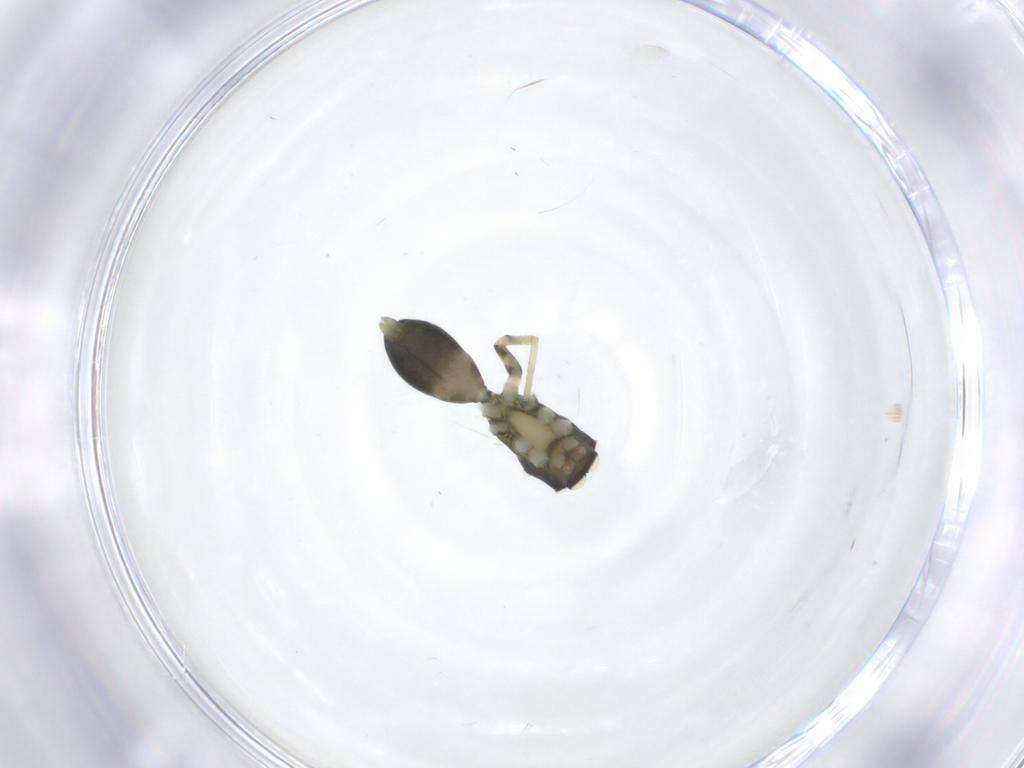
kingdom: Animalia
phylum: Arthropoda
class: Arachnida
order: Araneae
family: Salticidae
